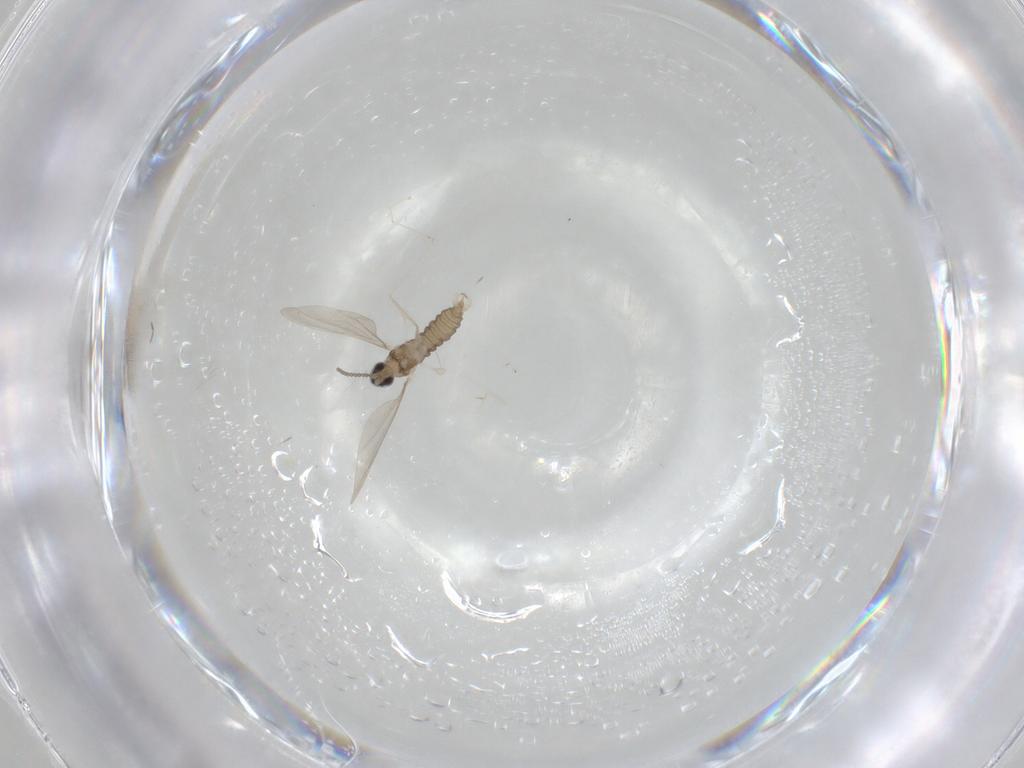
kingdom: Animalia
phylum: Arthropoda
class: Insecta
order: Diptera
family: Cecidomyiidae
